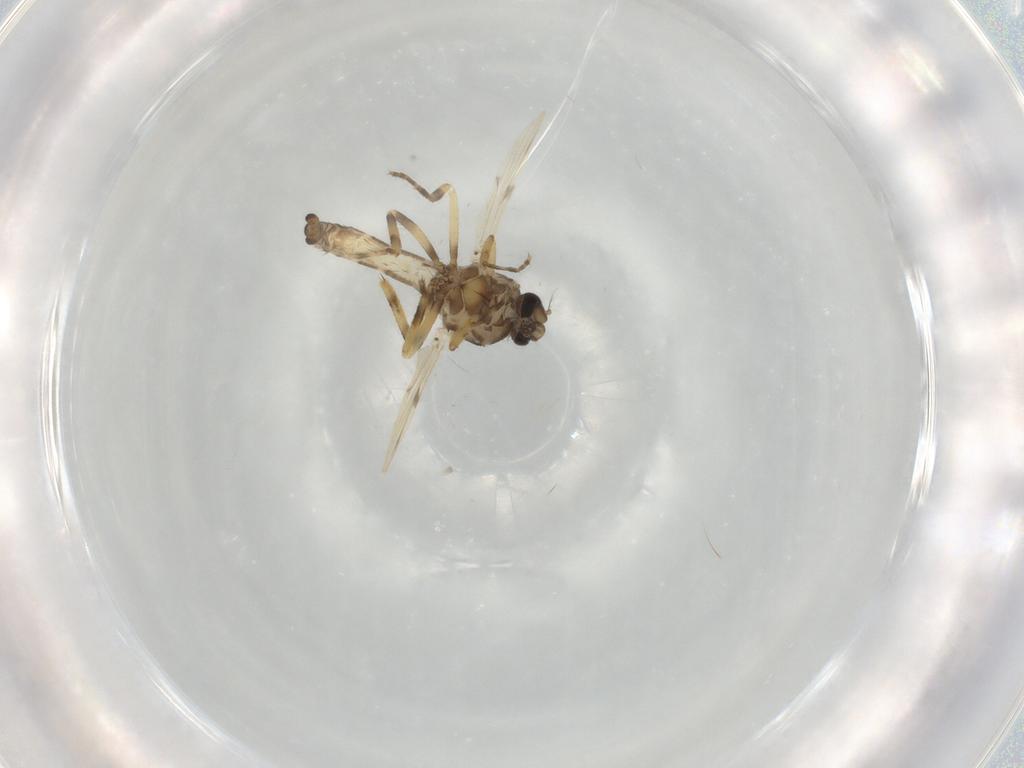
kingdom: Animalia
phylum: Arthropoda
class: Insecta
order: Diptera
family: Ceratopogonidae
